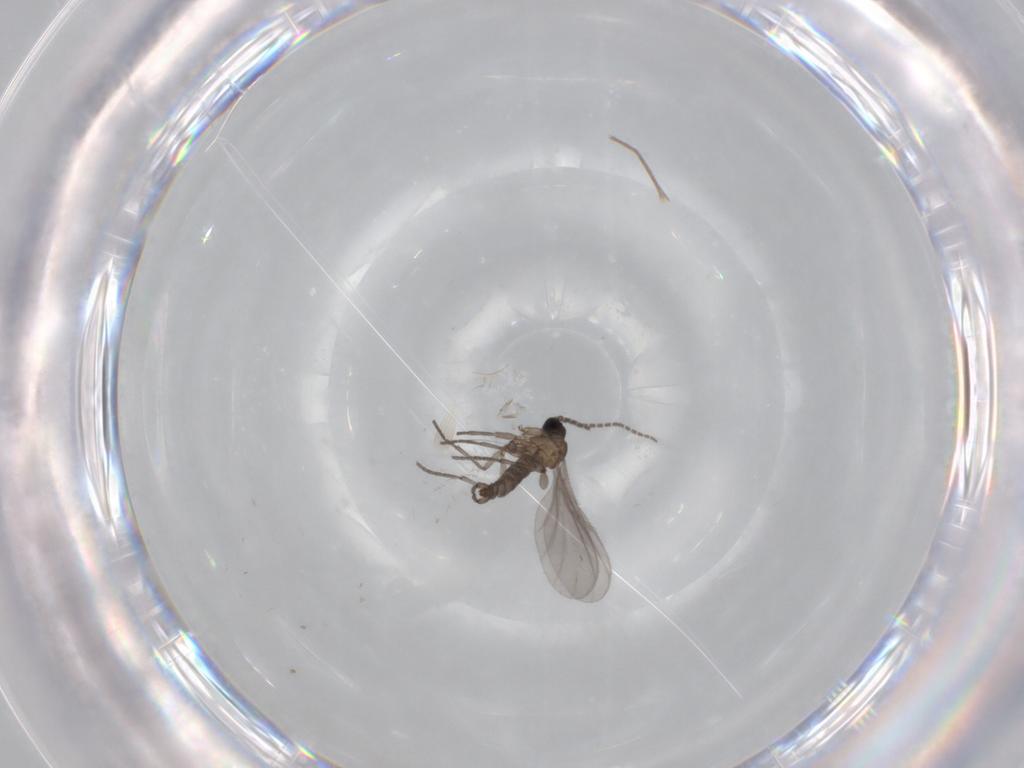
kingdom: Animalia
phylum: Arthropoda
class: Insecta
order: Diptera
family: Sciaridae
